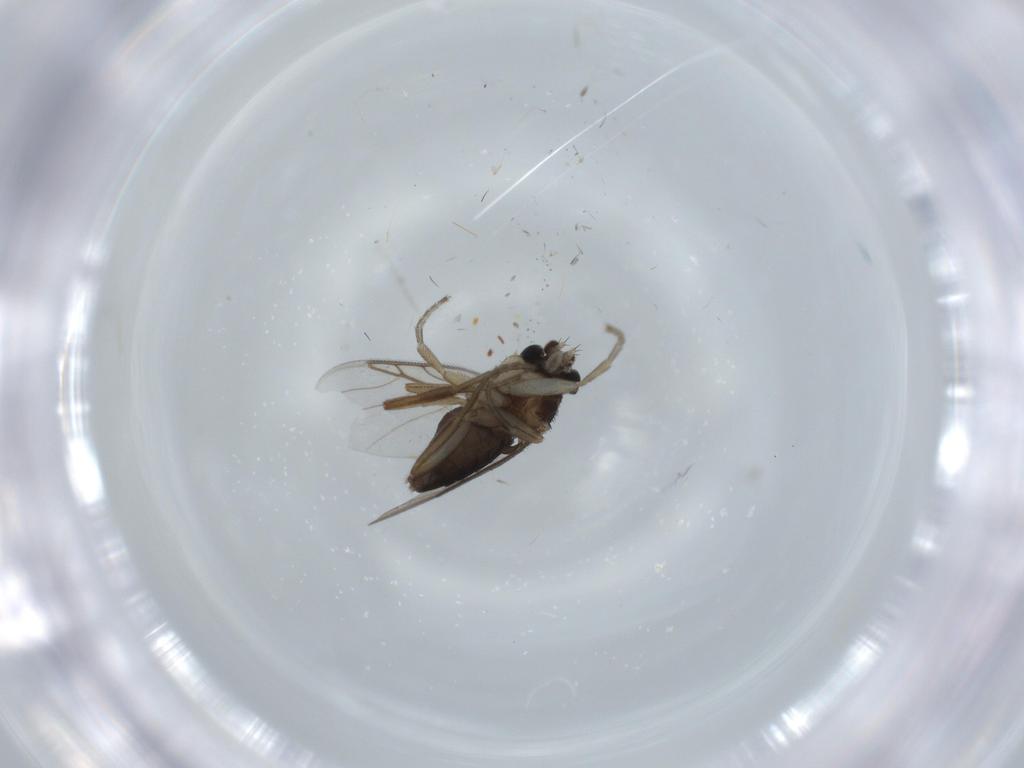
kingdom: Animalia
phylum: Arthropoda
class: Insecta
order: Diptera
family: Phoridae
